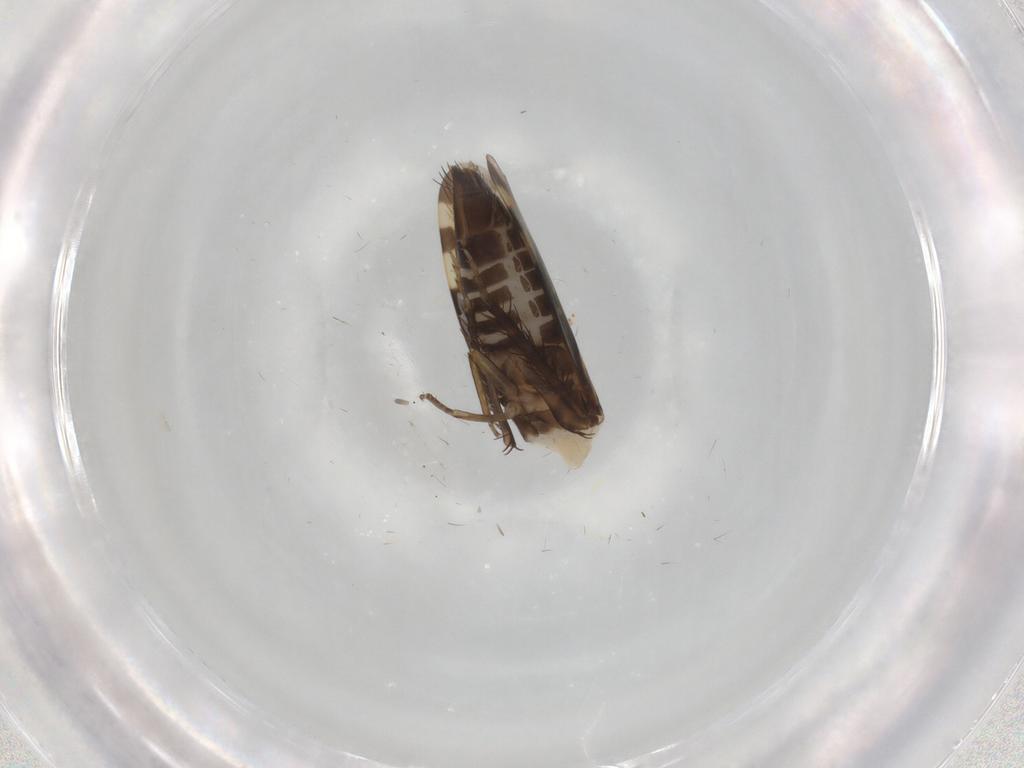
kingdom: Animalia
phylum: Arthropoda
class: Insecta
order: Hemiptera
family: Cicadellidae
